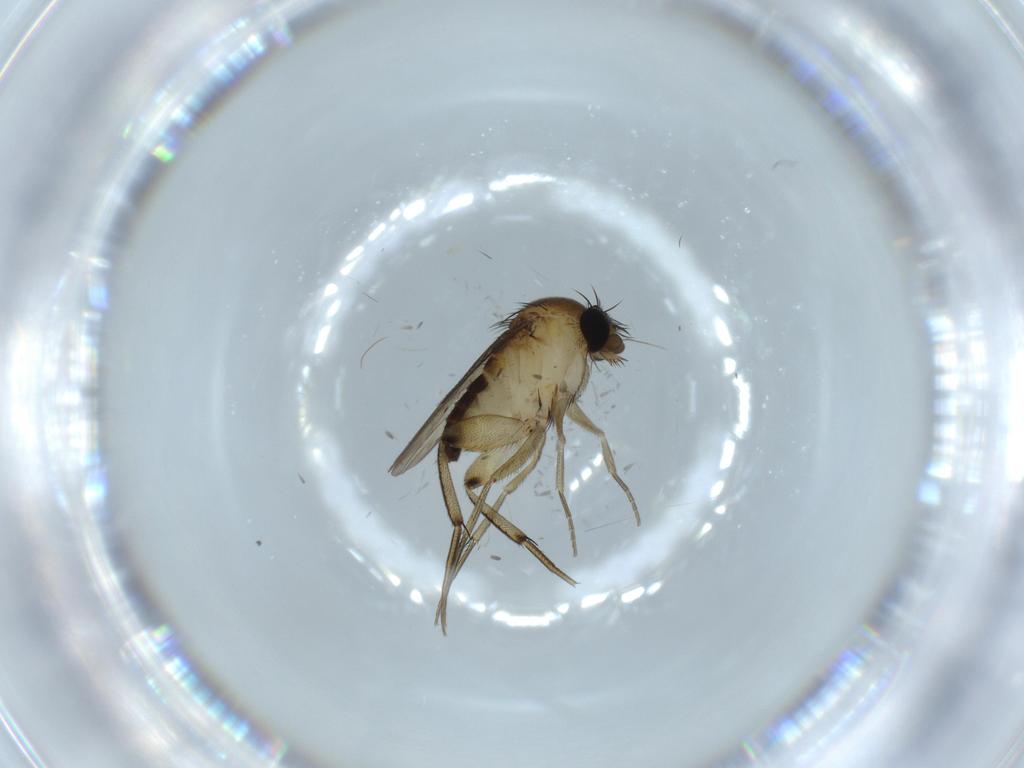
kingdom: Animalia
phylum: Arthropoda
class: Insecta
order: Diptera
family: Phoridae
